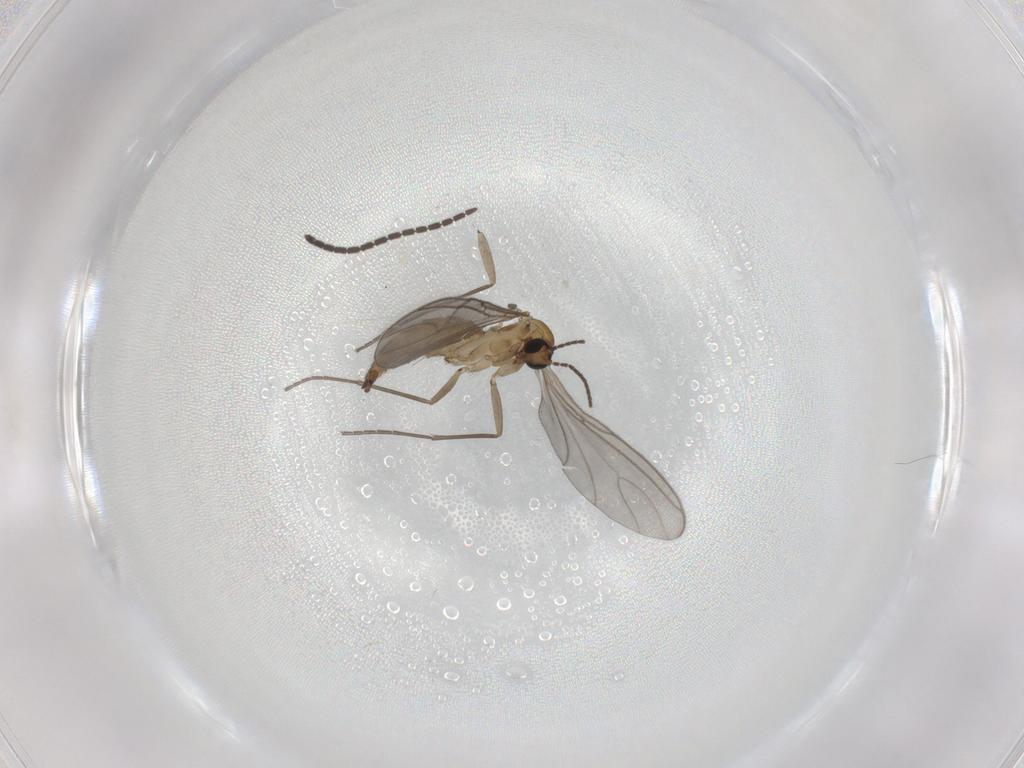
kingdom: Animalia
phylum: Arthropoda
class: Insecta
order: Diptera
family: Sciaridae
